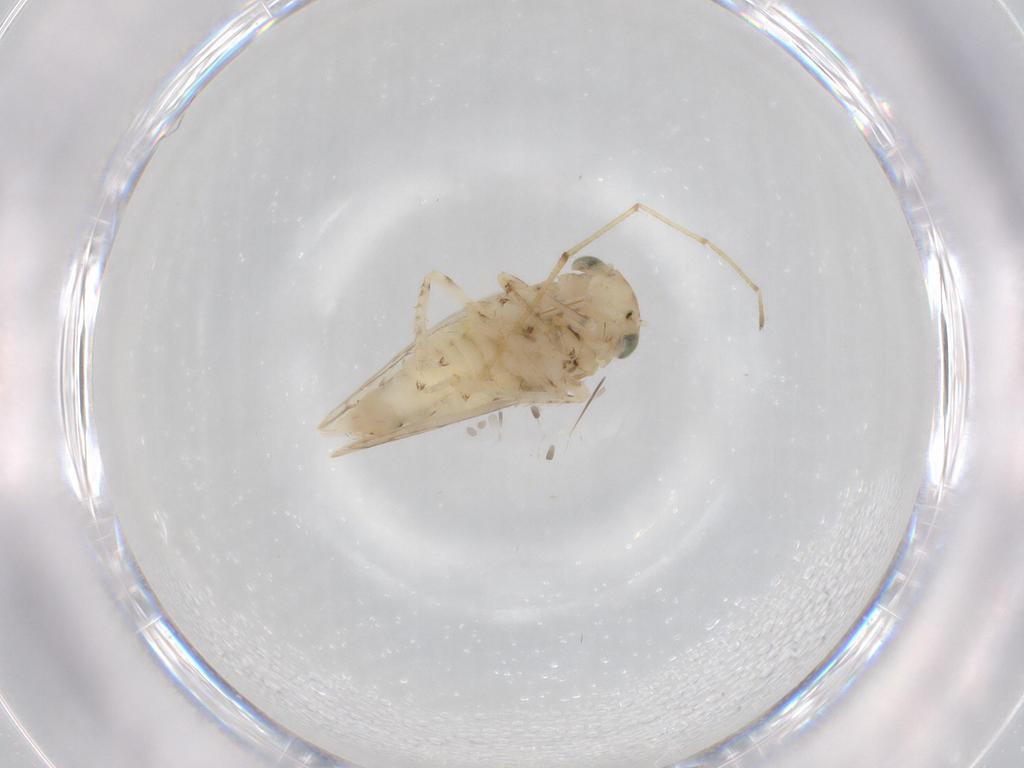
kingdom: Animalia
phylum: Arthropoda
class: Insecta
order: Hemiptera
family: Cicadellidae
